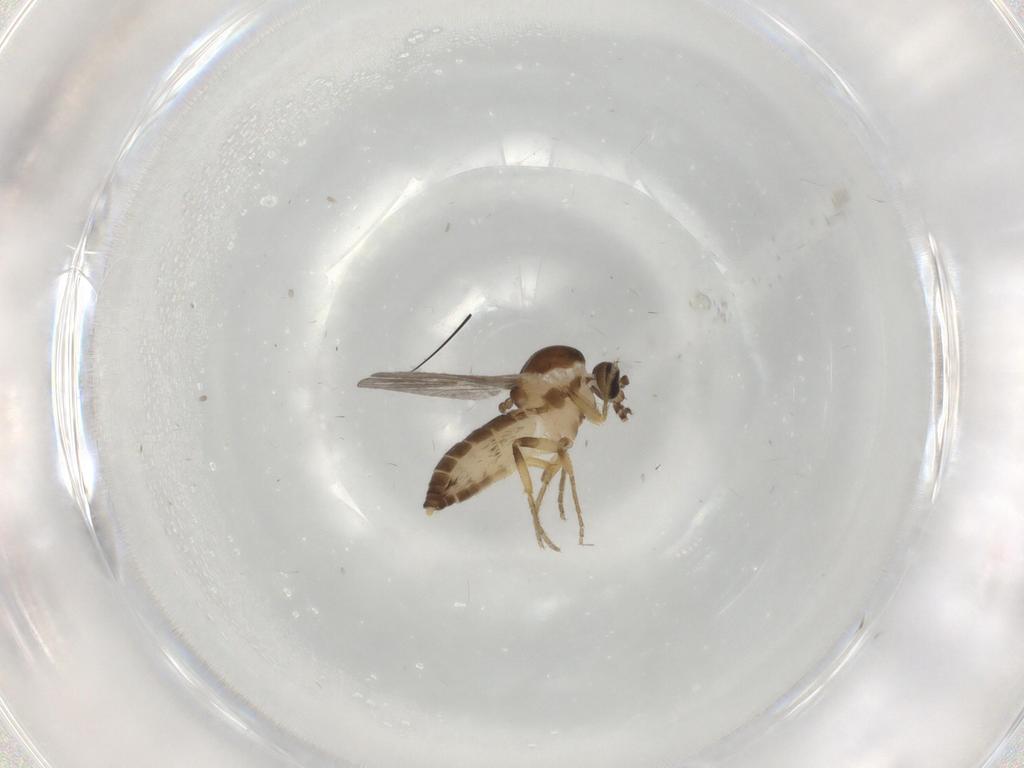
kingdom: Animalia
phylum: Arthropoda
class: Insecta
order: Diptera
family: Ceratopogonidae
